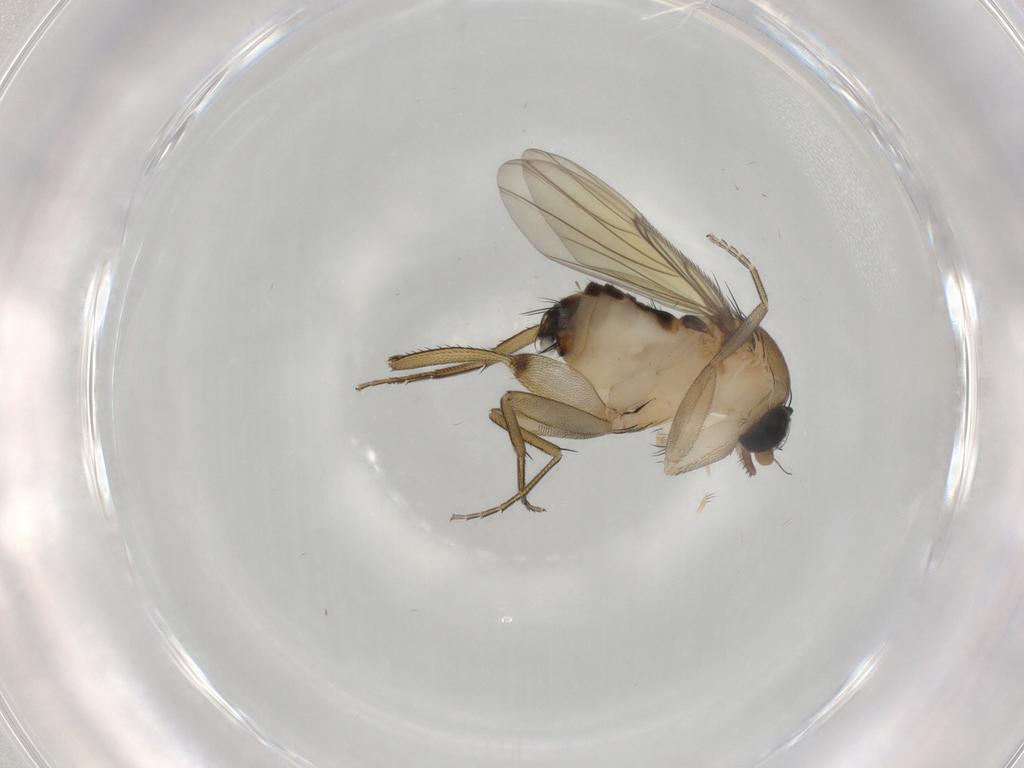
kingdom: Animalia
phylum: Arthropoda
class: Insecta
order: Diptera
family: Phoridae
